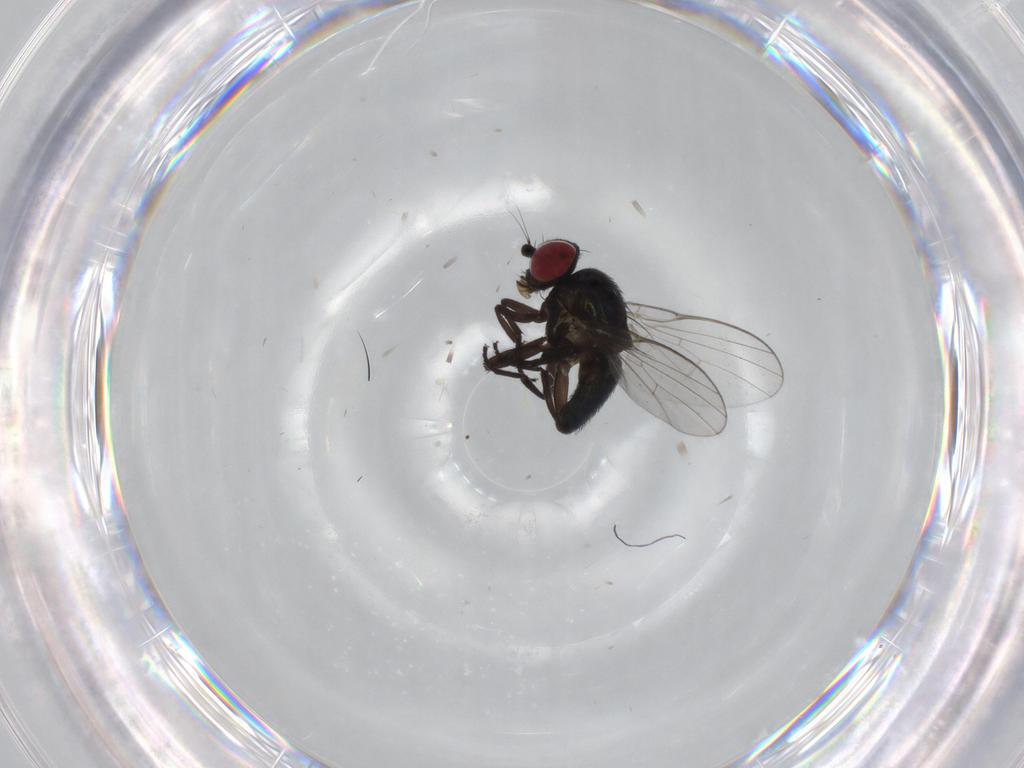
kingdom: Animalia
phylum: Arthropoda
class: Insecta
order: Diptera
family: Agromyzidae
